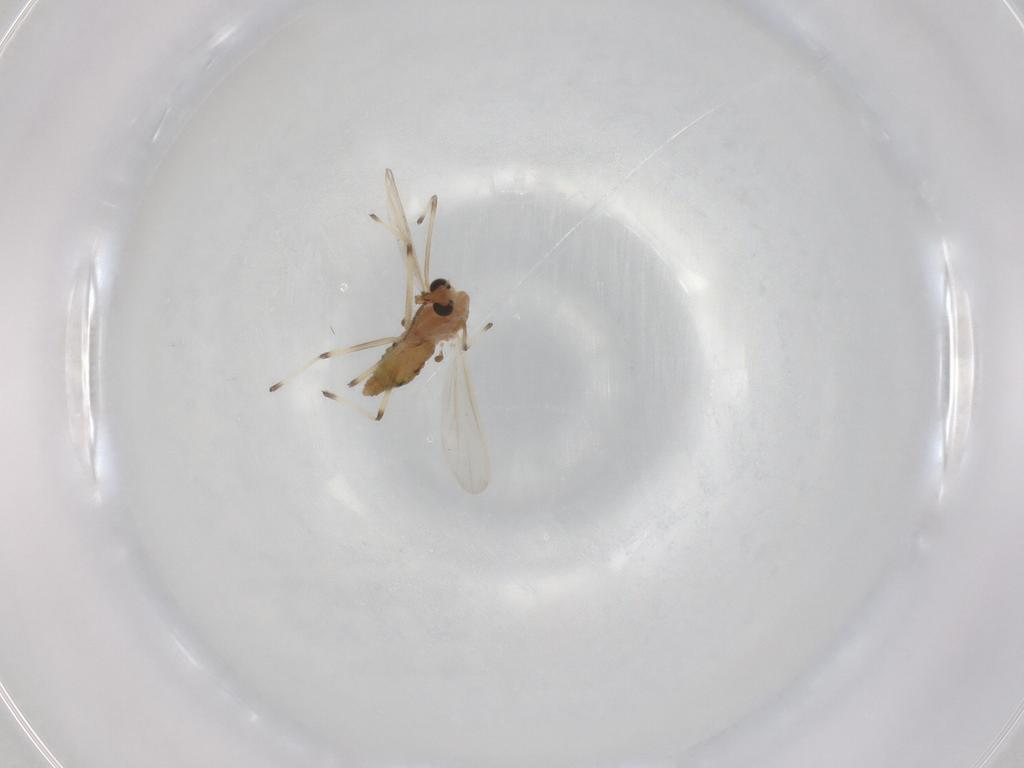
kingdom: Animalia
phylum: Arthropoda
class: Insecta
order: Diptera
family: Chironomidae
